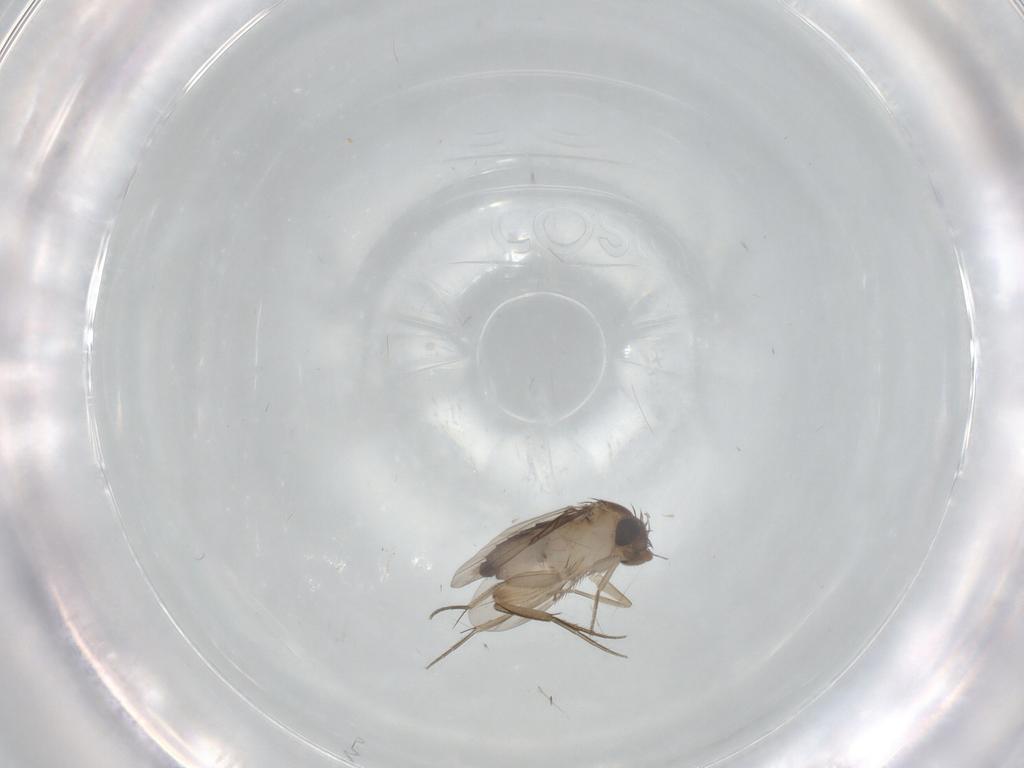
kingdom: Animalia
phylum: Arthropoda
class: Insecta
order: Diptera
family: Phoridae
